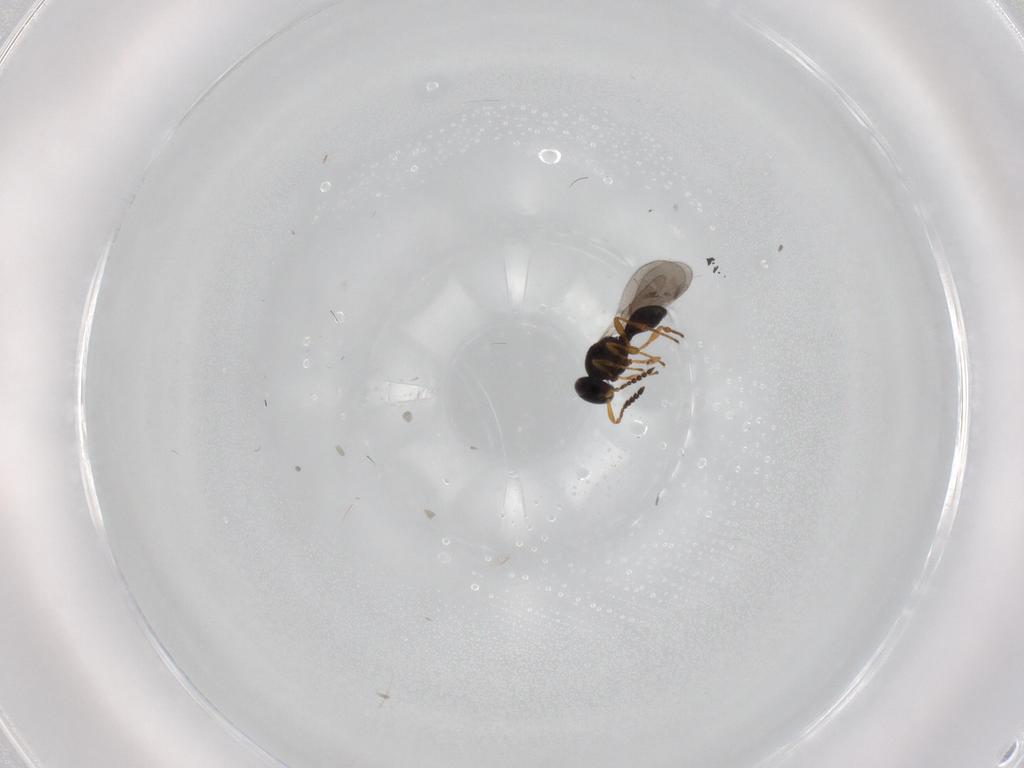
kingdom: Animalia
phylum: Arthropoda
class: Insecta
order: Hymenoptera
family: Platygastridae
